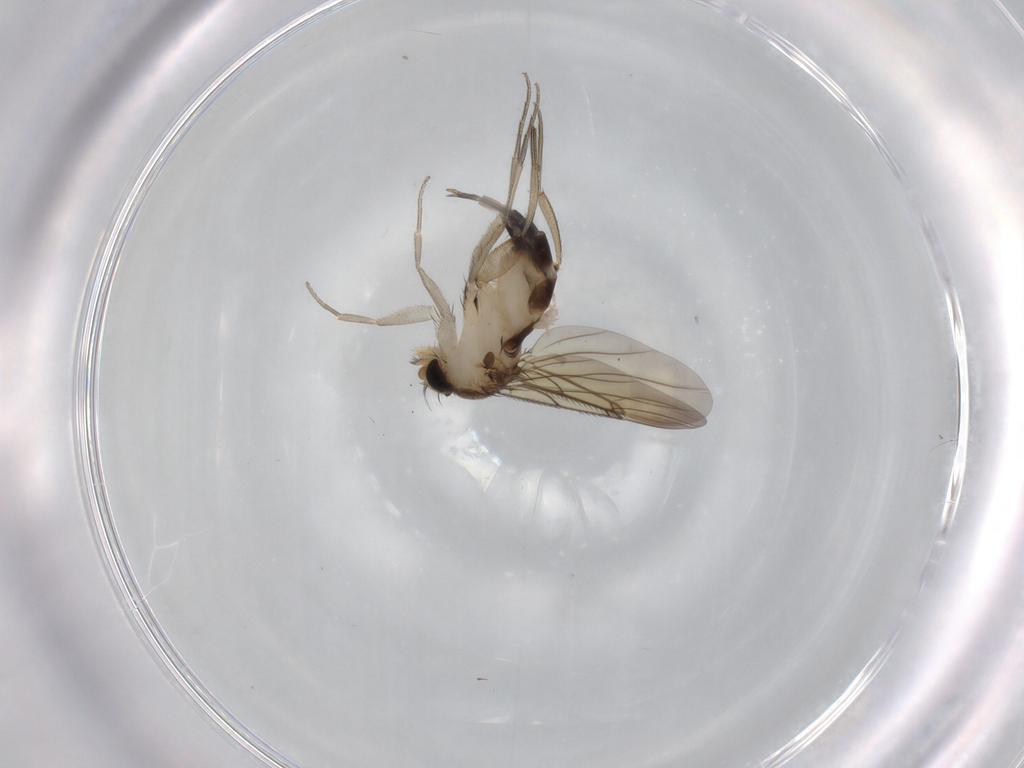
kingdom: Animalia
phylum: Arthropoda
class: Insecta
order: Diptera
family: Phoridae
